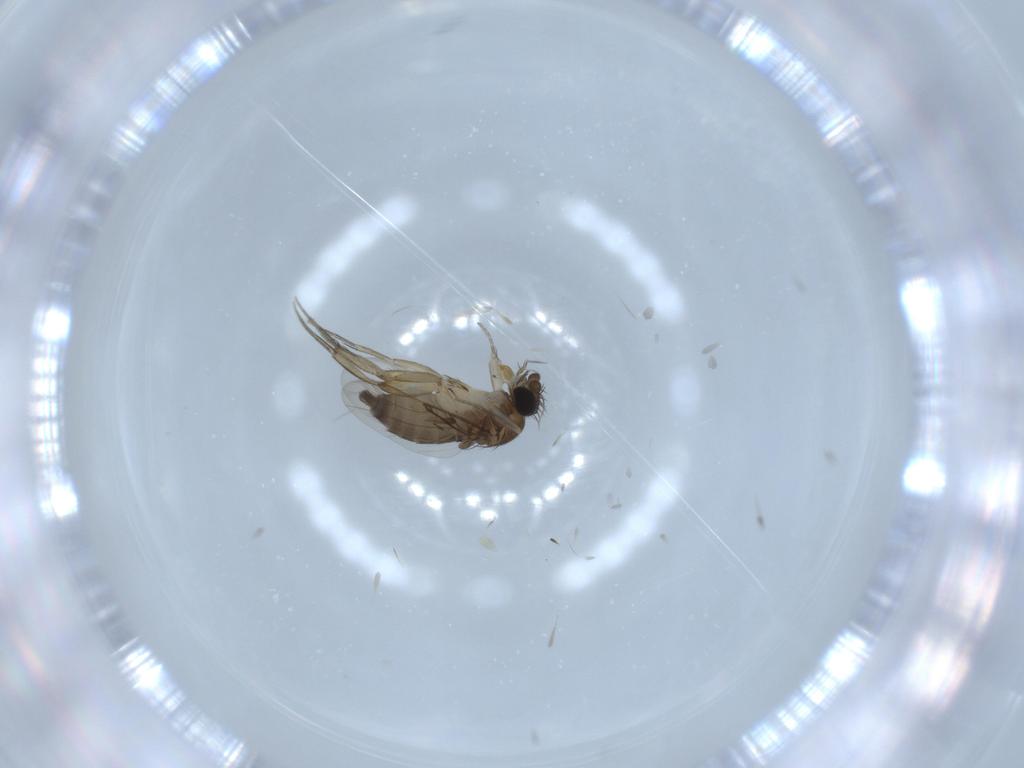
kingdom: Animalia
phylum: Arthropoda
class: Insecta
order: Diptera
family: Phoridae
